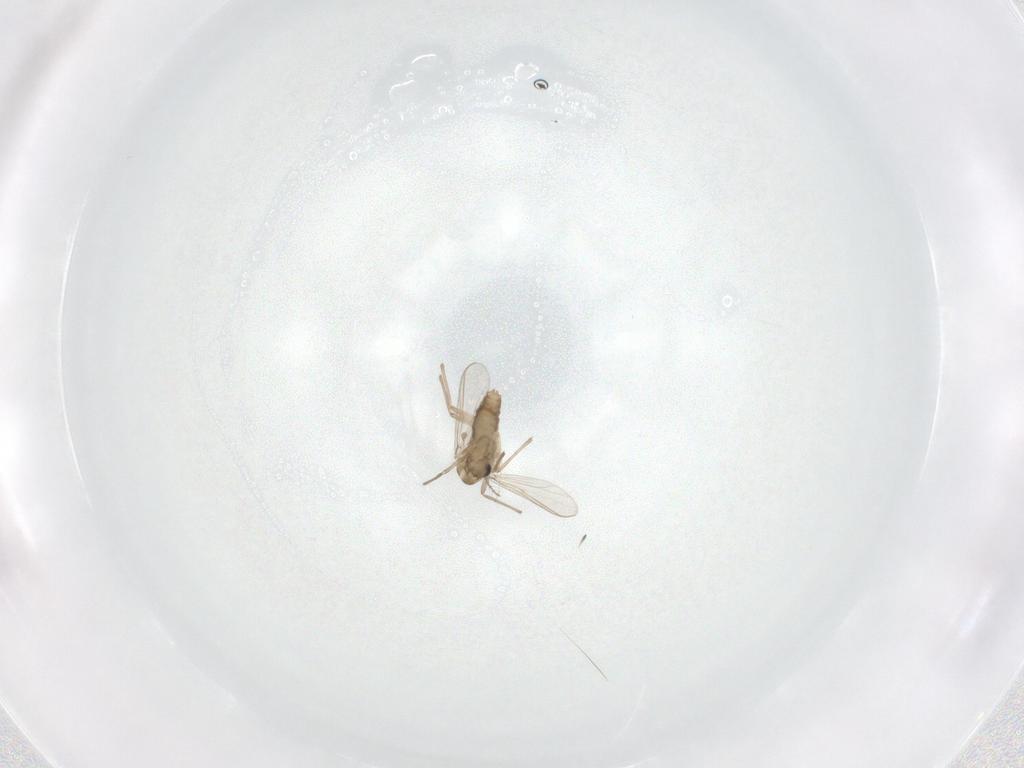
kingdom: Animalia
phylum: Arthropoda
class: Insecta
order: Diptera
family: Chironomidae
